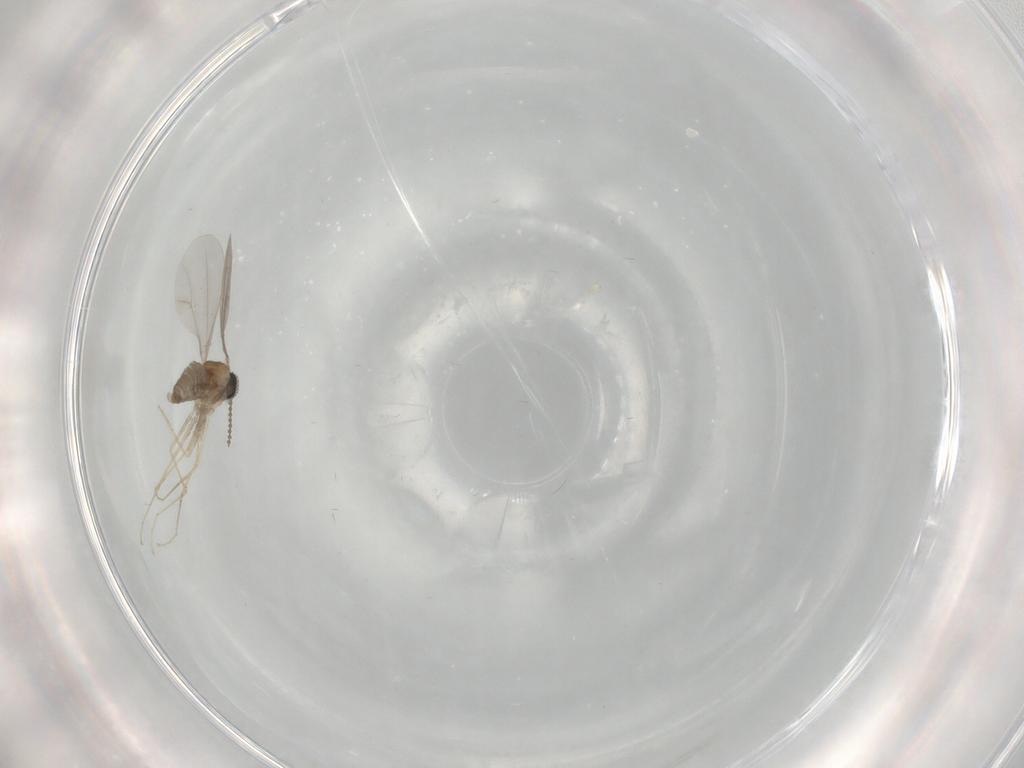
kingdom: Animalia
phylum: Arthropoda
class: Insecta
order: Diptera
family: Cecidomyiidae
